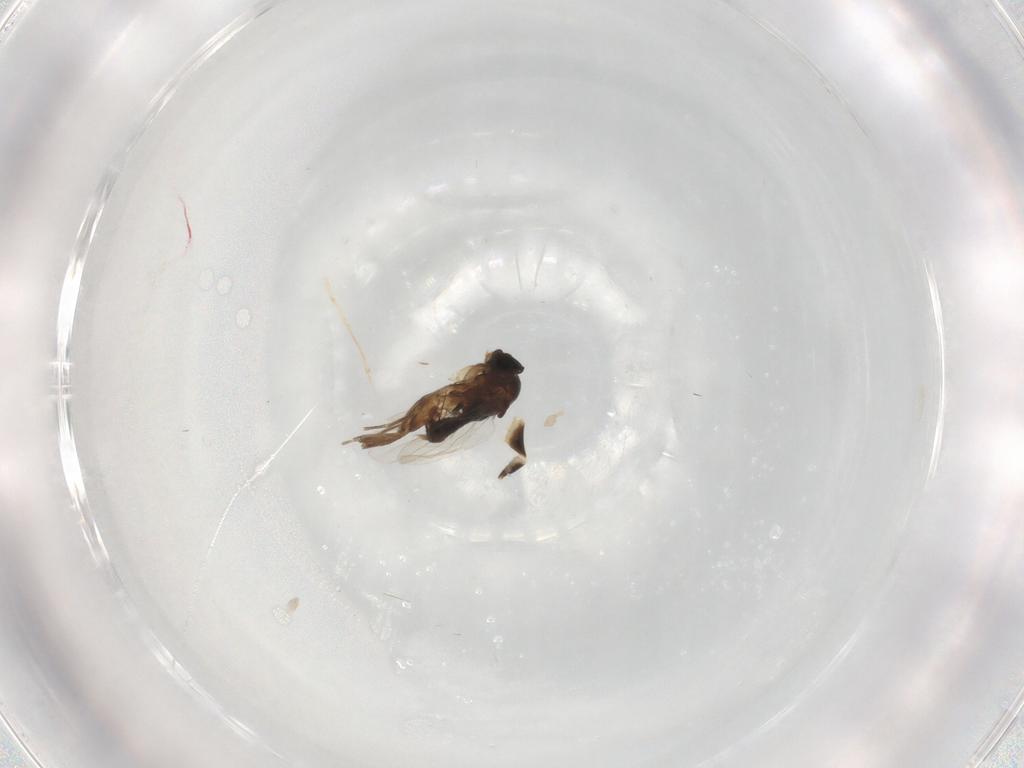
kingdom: Animalia
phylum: Arthropoda
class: Insecta
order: Diptera
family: Phoridae
